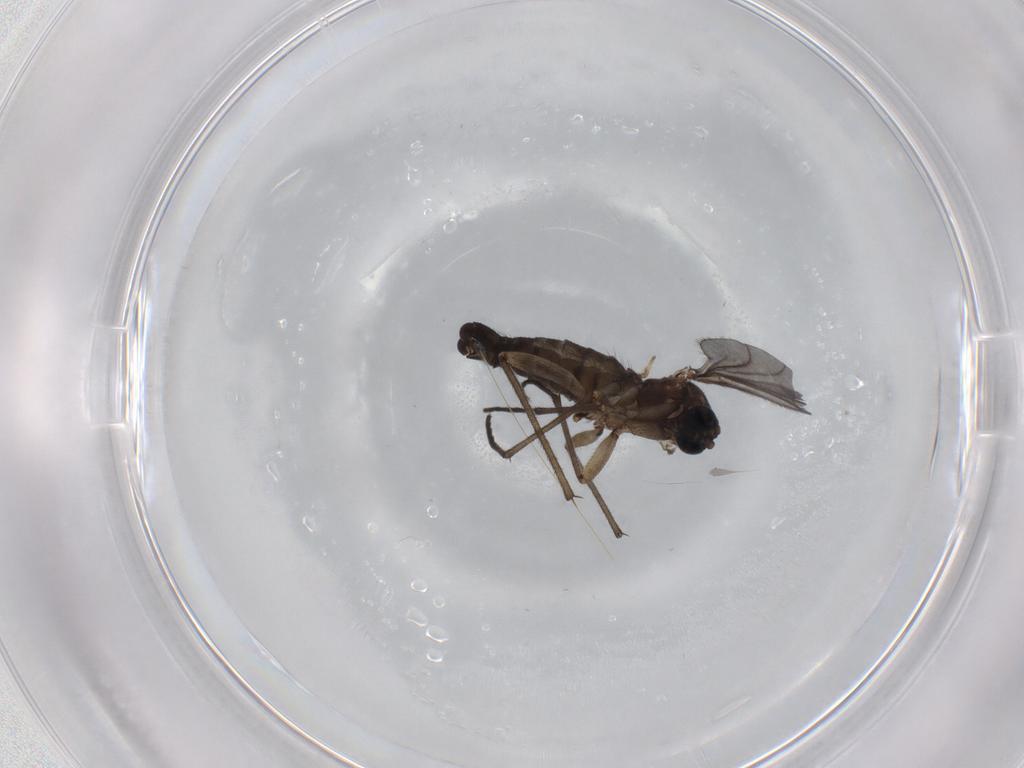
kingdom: Animalia
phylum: Arthropoda
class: Insecta
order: Diptera
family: Sciaridae
